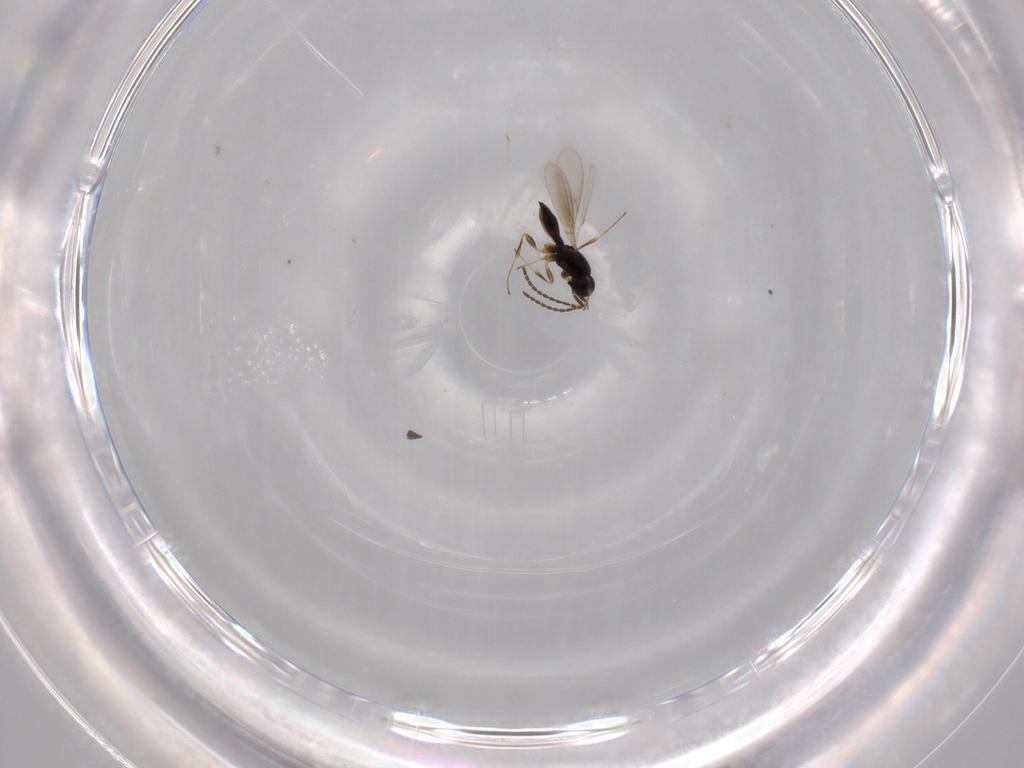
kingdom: Animalia
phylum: Arthropoda
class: Insecta
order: Hymenoptera
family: Scelionidae
